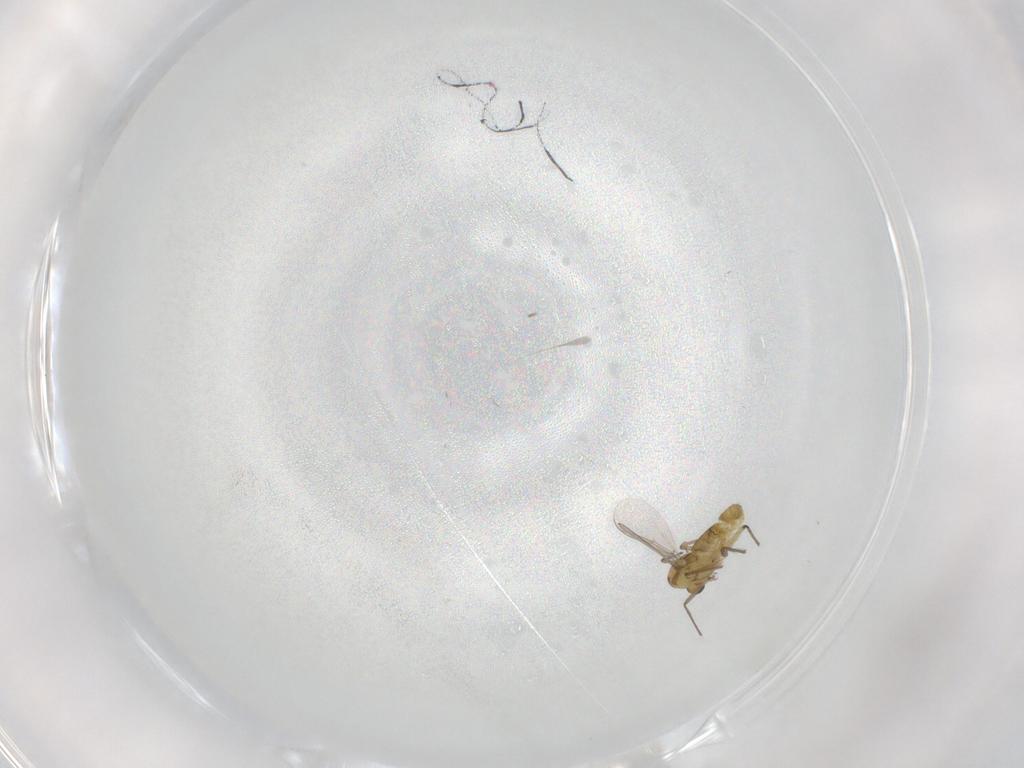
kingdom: Animalia
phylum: Arthropoda
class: Insecta
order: Diptera
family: Chironomidae
